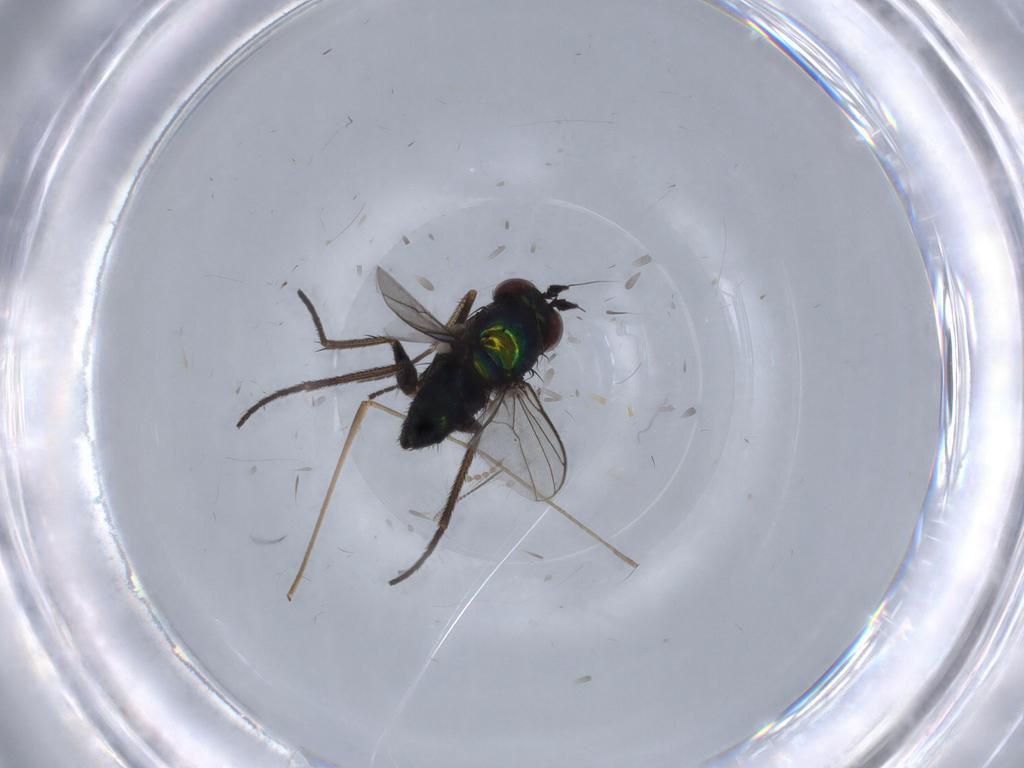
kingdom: Animalia
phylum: Arthropoda
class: Insecta
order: Diptera
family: Dolichopodidae
